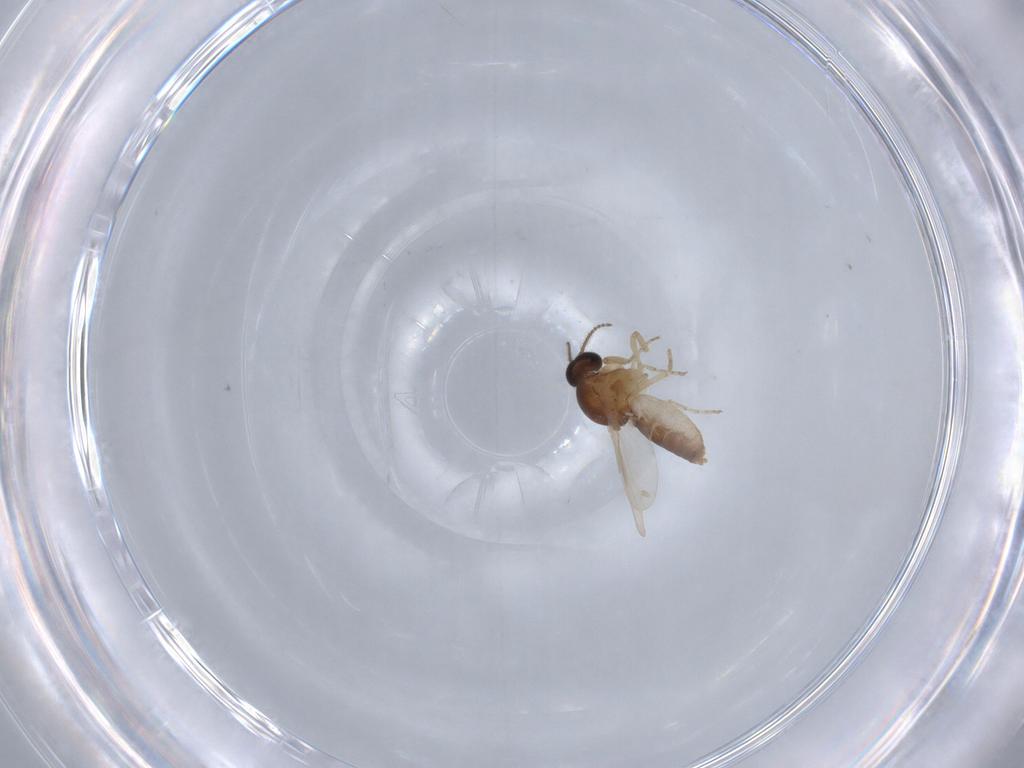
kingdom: Animalia
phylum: Arthropoda
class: Insecta
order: Diptera
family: Ceratopogonidae
